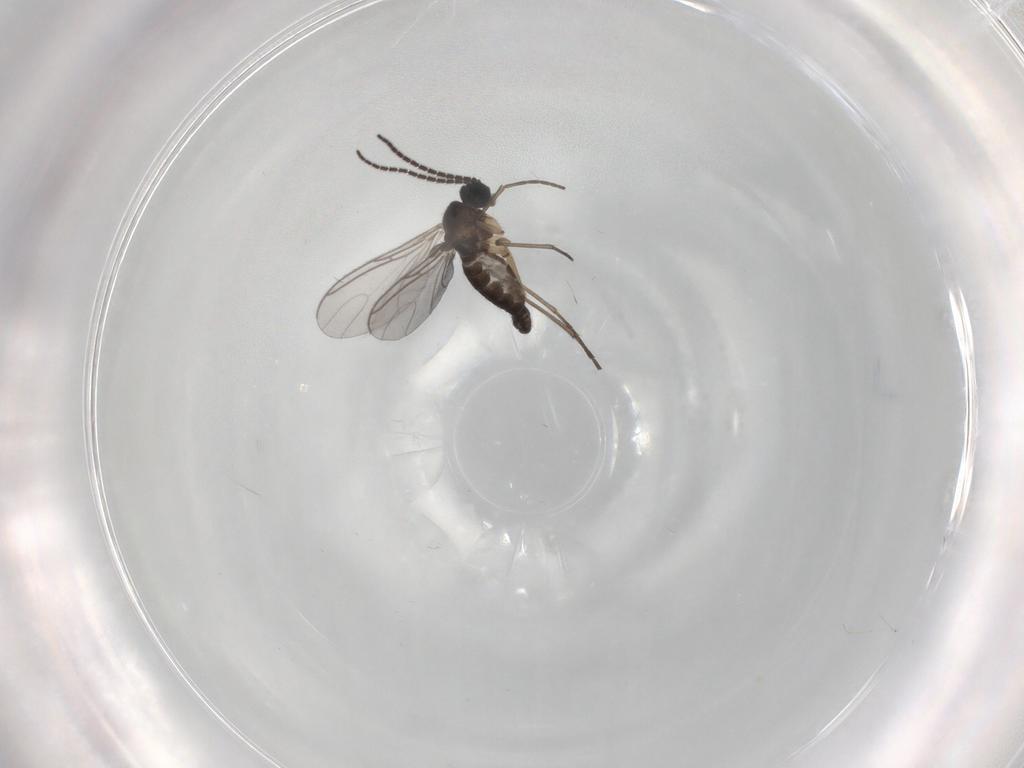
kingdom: Animalia
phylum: Arthropoda
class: Insecta
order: Diptera
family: Sciaridae
